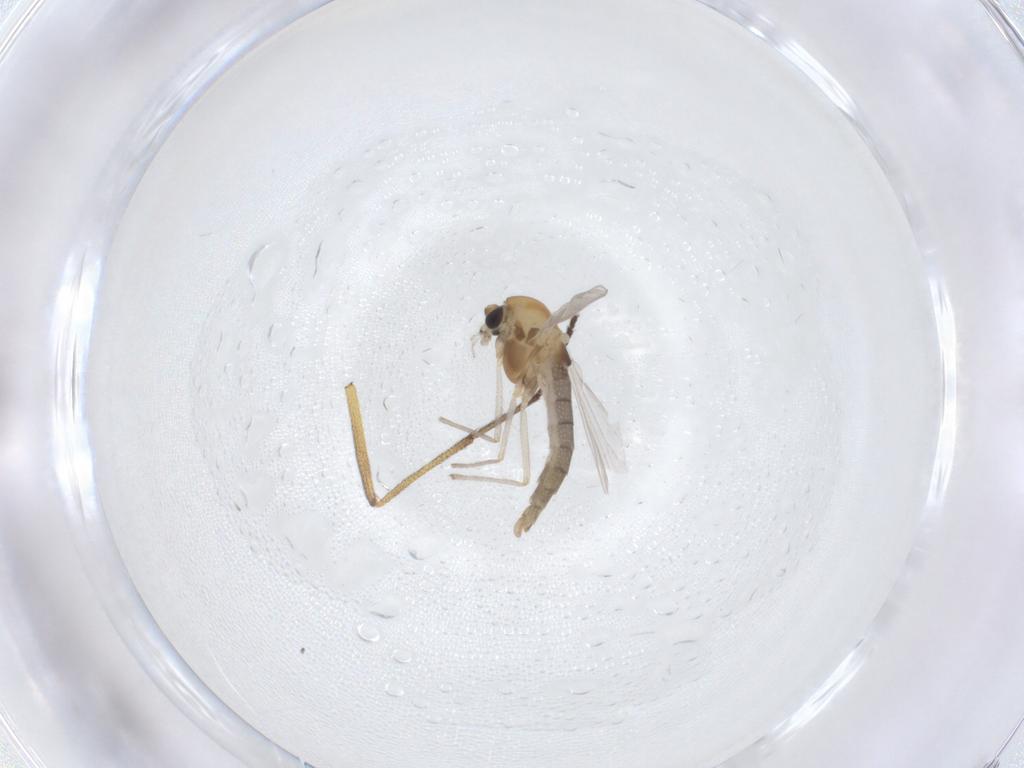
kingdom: Animalia
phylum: Arthropoda
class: Insecta
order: Diptera
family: Chironomidae
